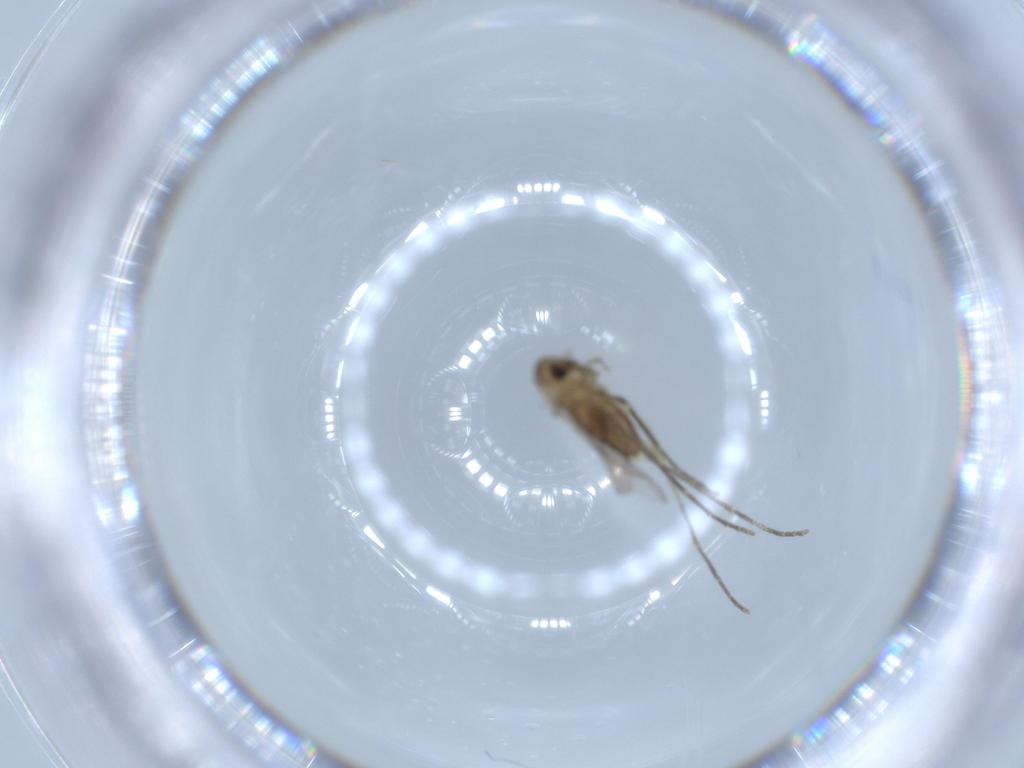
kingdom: Animalia
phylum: Arthropoda
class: Insecta
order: Diptera
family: Psychodidae
